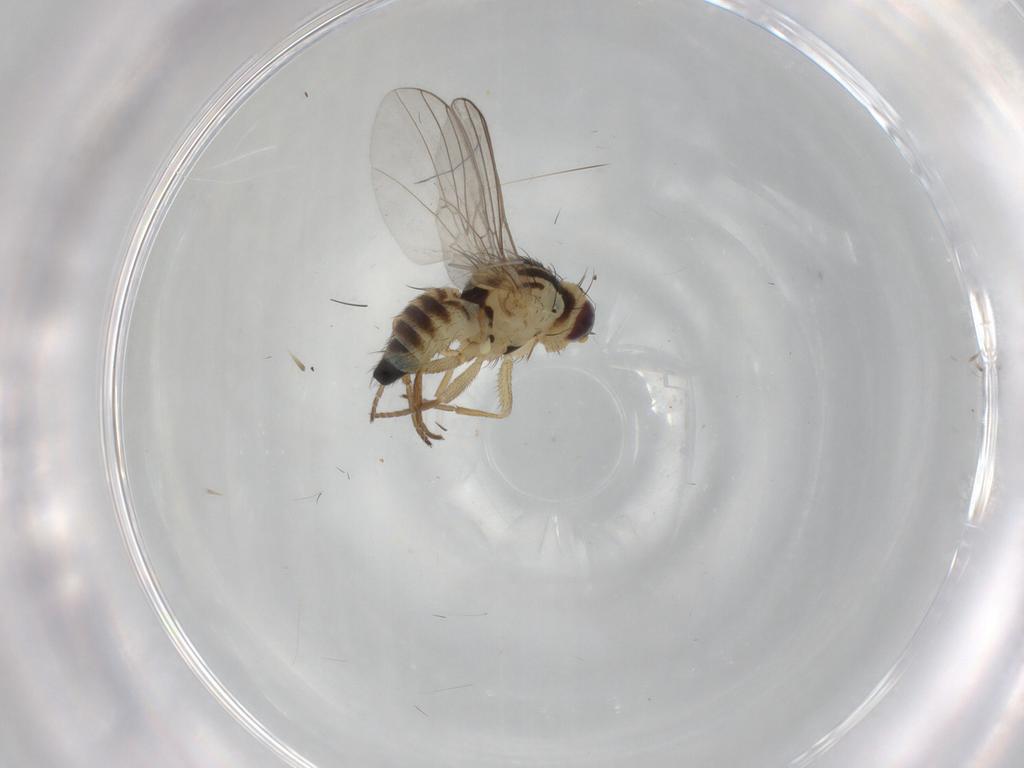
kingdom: Animalia
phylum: Arthropoda
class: Insecta
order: Diptera
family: Agromyzidae
